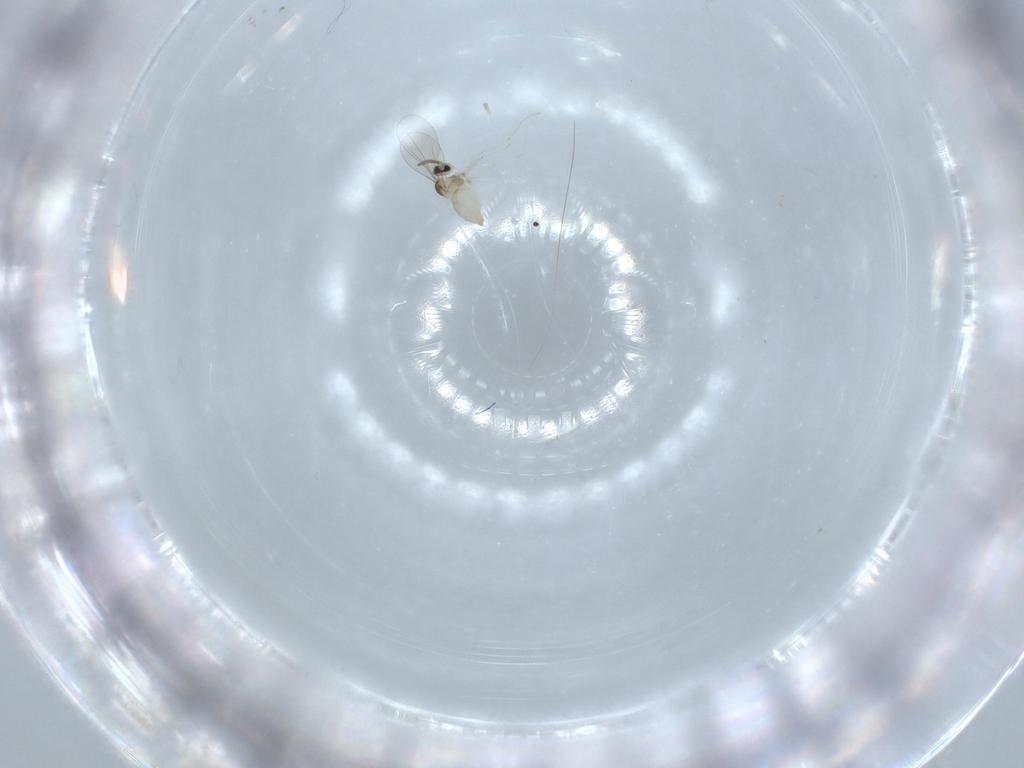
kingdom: Animalia
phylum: Arthropoda
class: Insecta
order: Diptera
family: Cecidomyiidae
